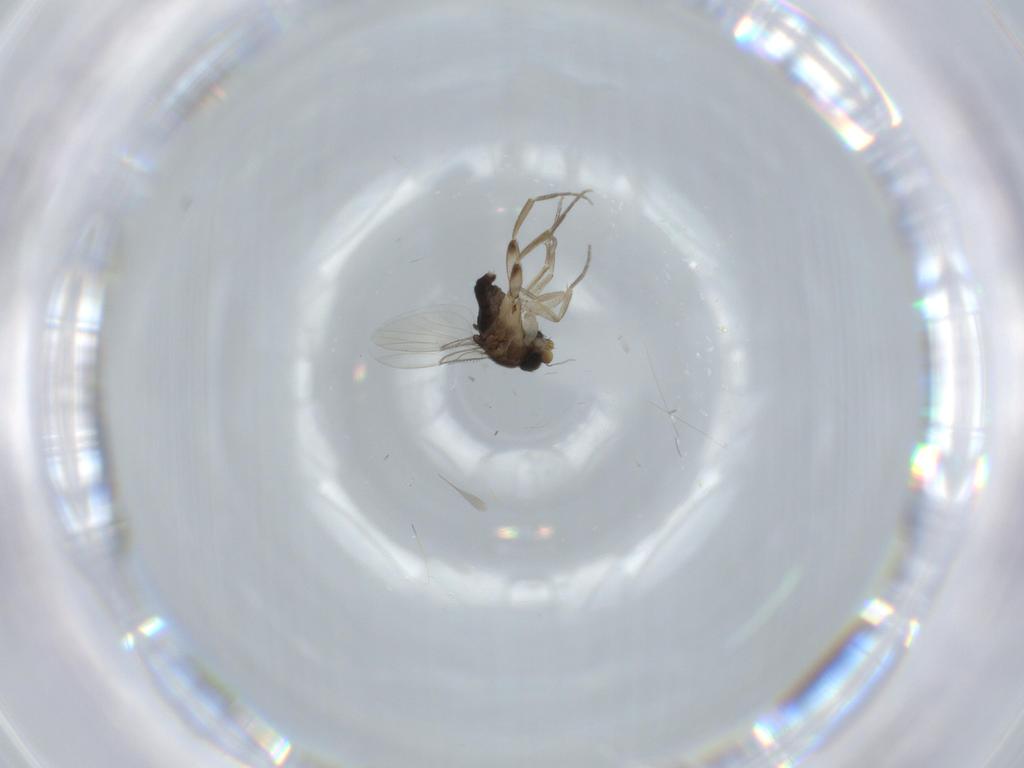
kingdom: Animalia
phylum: Arthropoda
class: Insecta
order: Diptera
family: Phoridae
